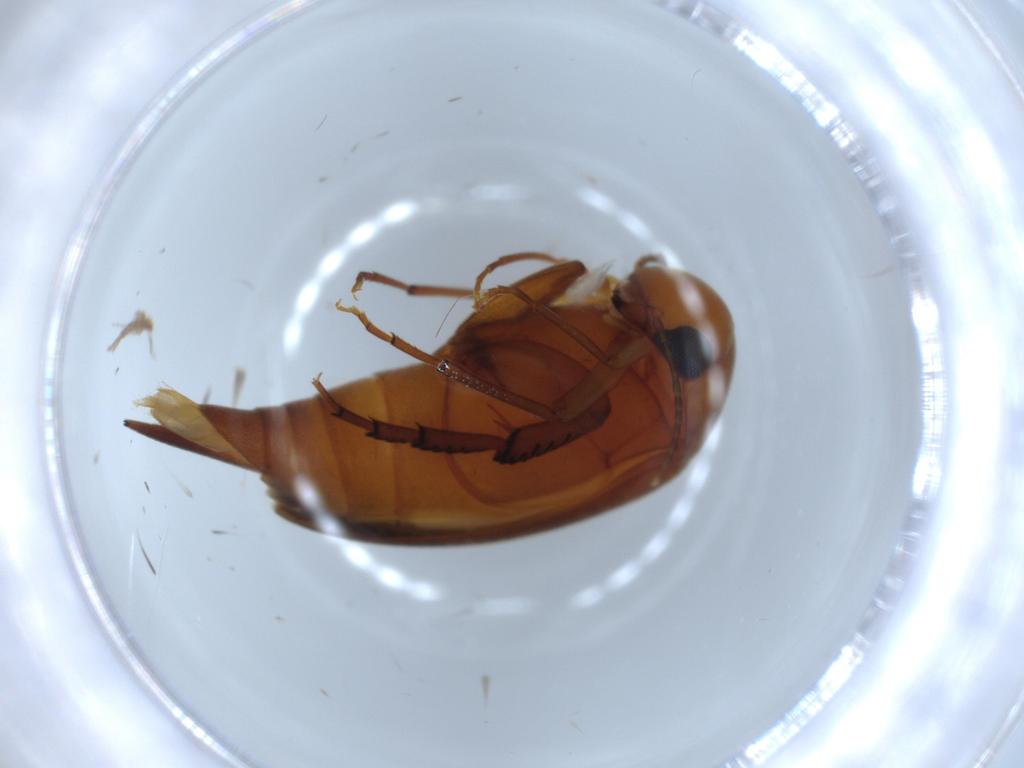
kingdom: Animalia
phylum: Arthropoda
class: Insecta
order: Coleoptera
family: Mordellidae
